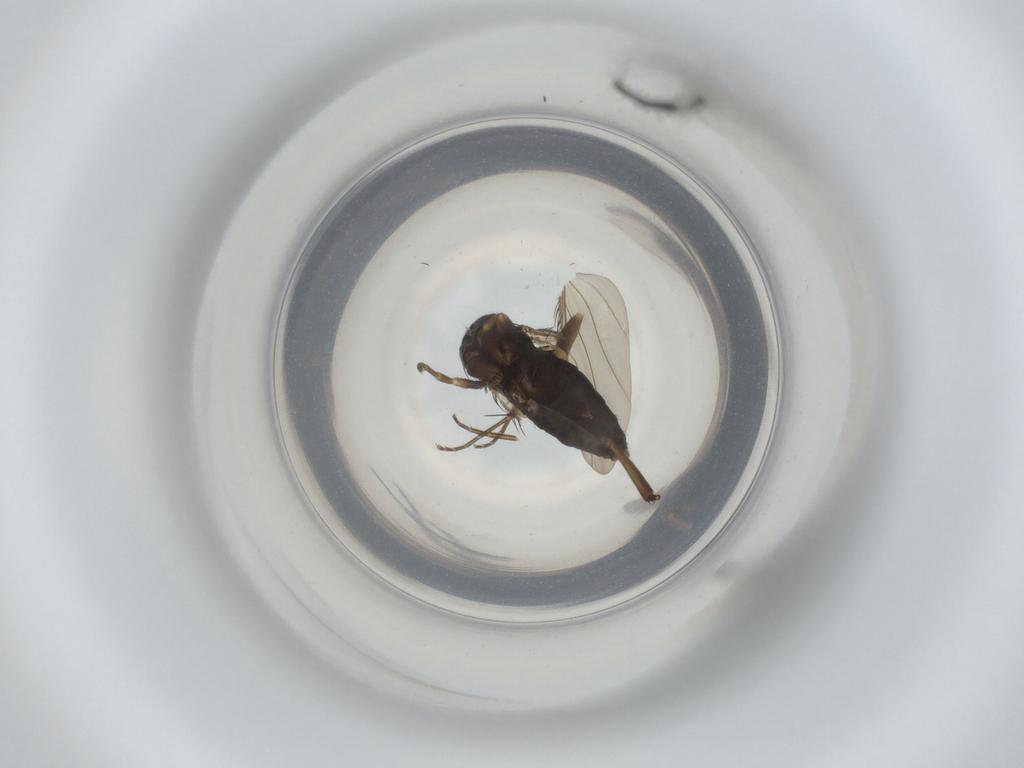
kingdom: Animalia
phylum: Arthropoda
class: Insecta
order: Diptera
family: Phoridae
